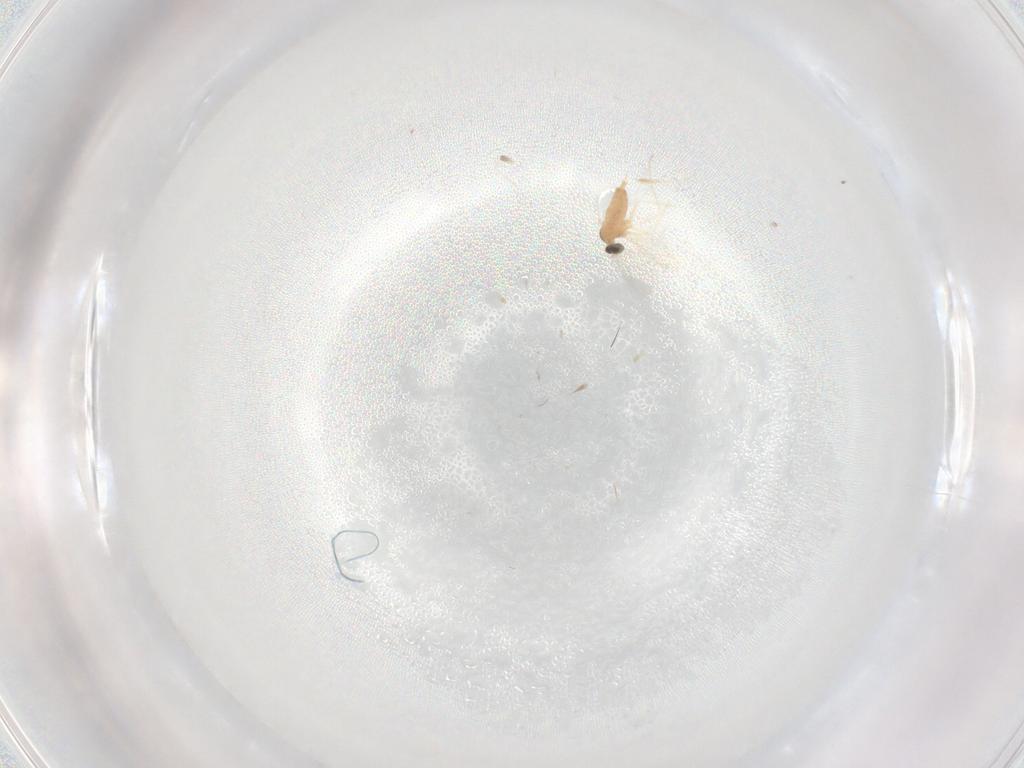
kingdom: Animalia
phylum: Arthropoda
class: Insecta
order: Diptera
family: Cecidomyiidae
